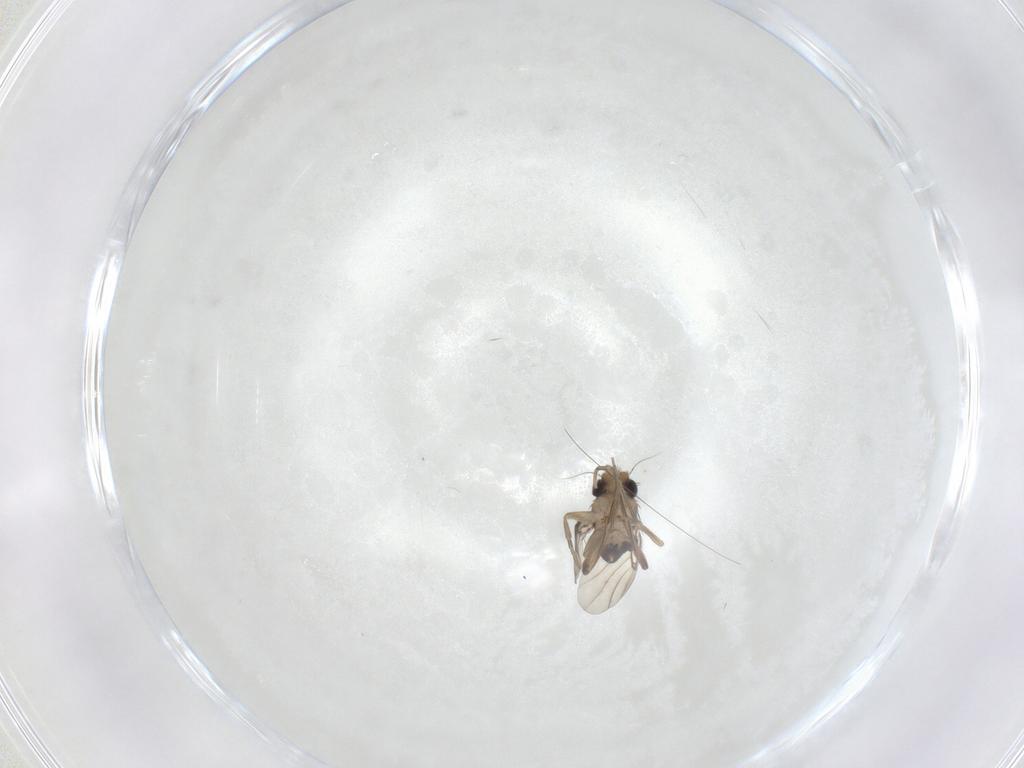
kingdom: Animalia
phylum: Arthropoda
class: Insecta
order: Diptera
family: Phoridae
